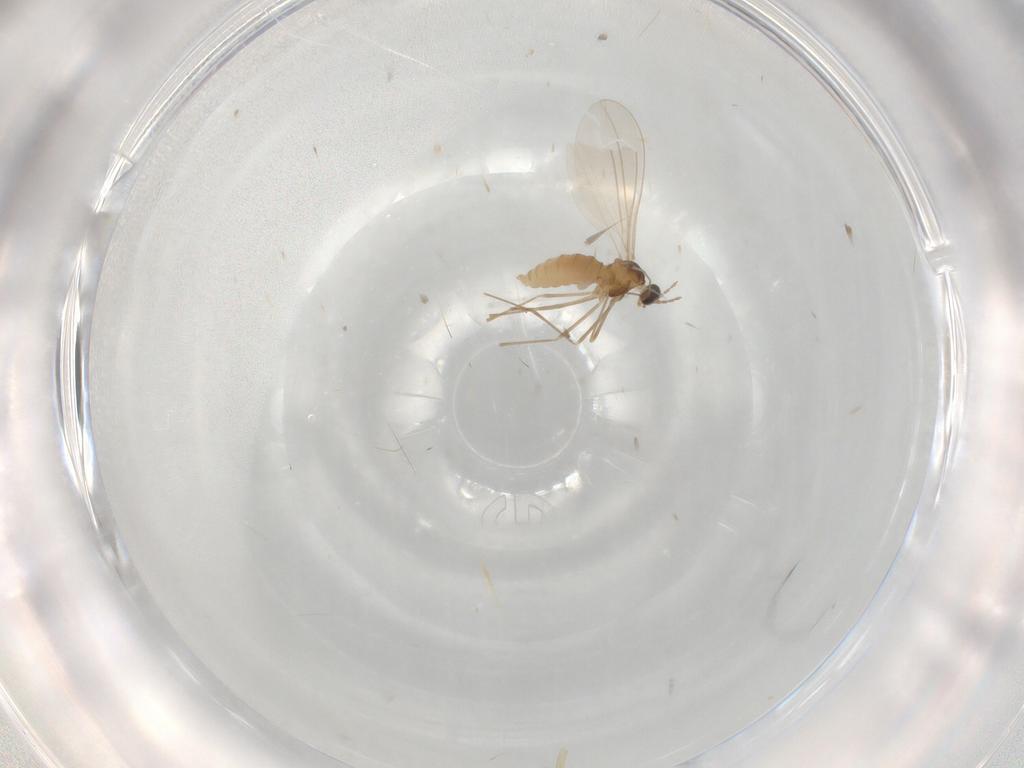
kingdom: Animalia
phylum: Arthropoda
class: Insecta
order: Diptera
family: Cecidomyiidae
